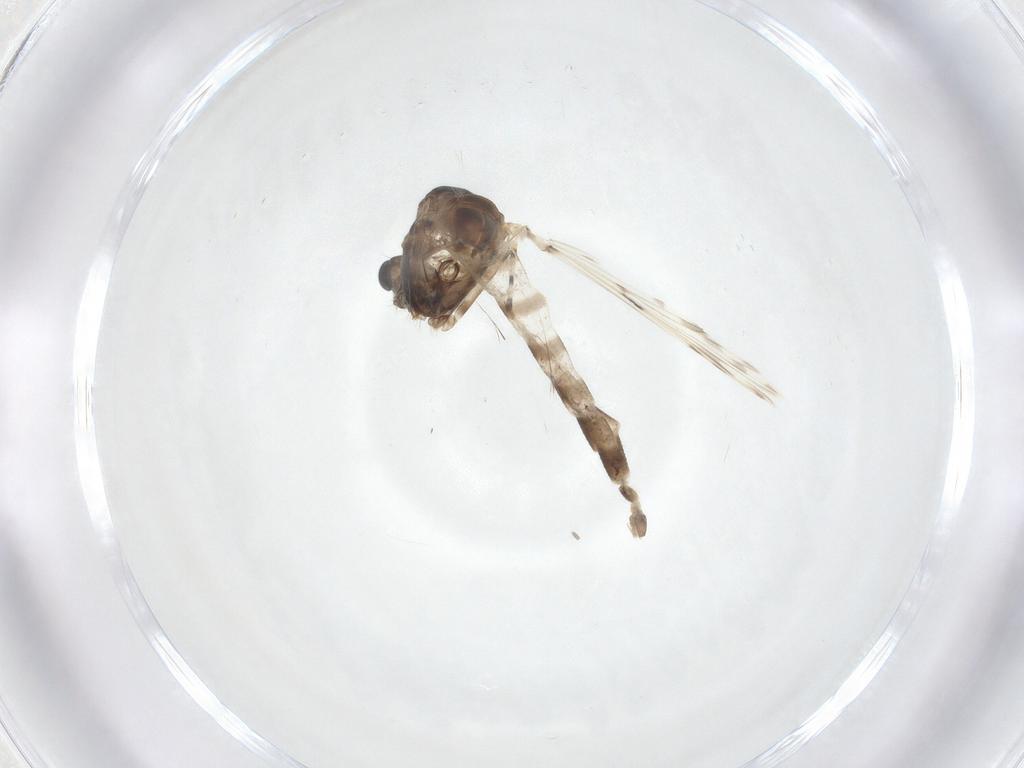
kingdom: Animalia
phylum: Arthropoda
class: Insecta
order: Diptera
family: Chironomidae
